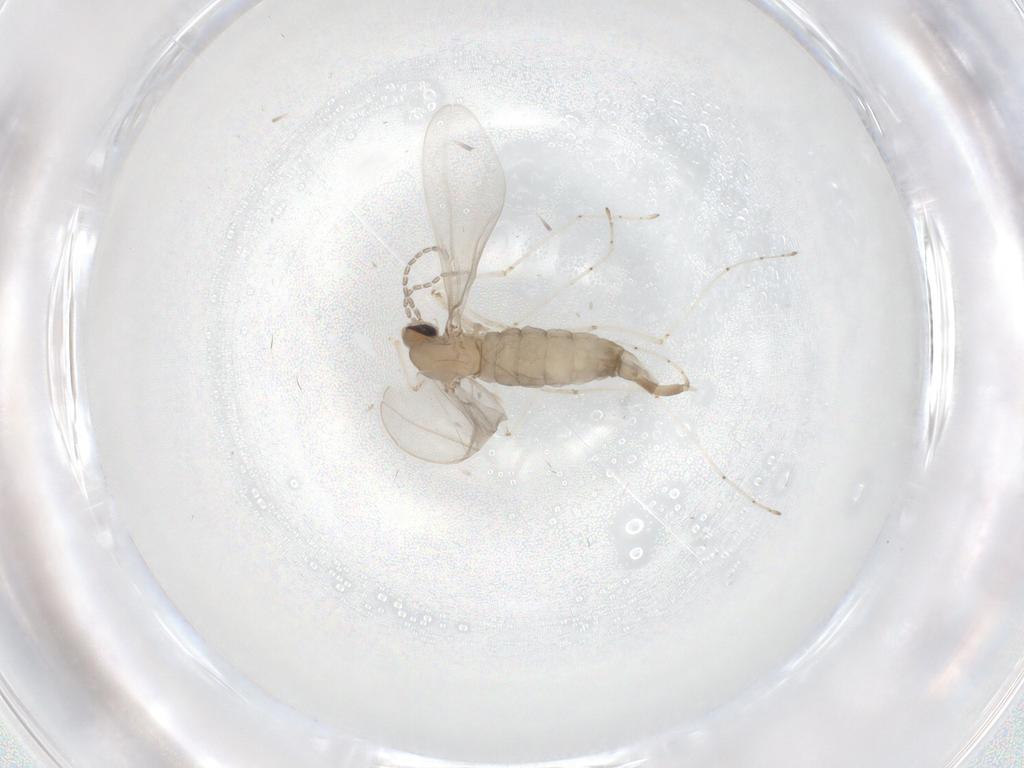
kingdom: Animalia
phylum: Arthropoda
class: Insecta
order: Diptera
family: Cecidomyiidae
